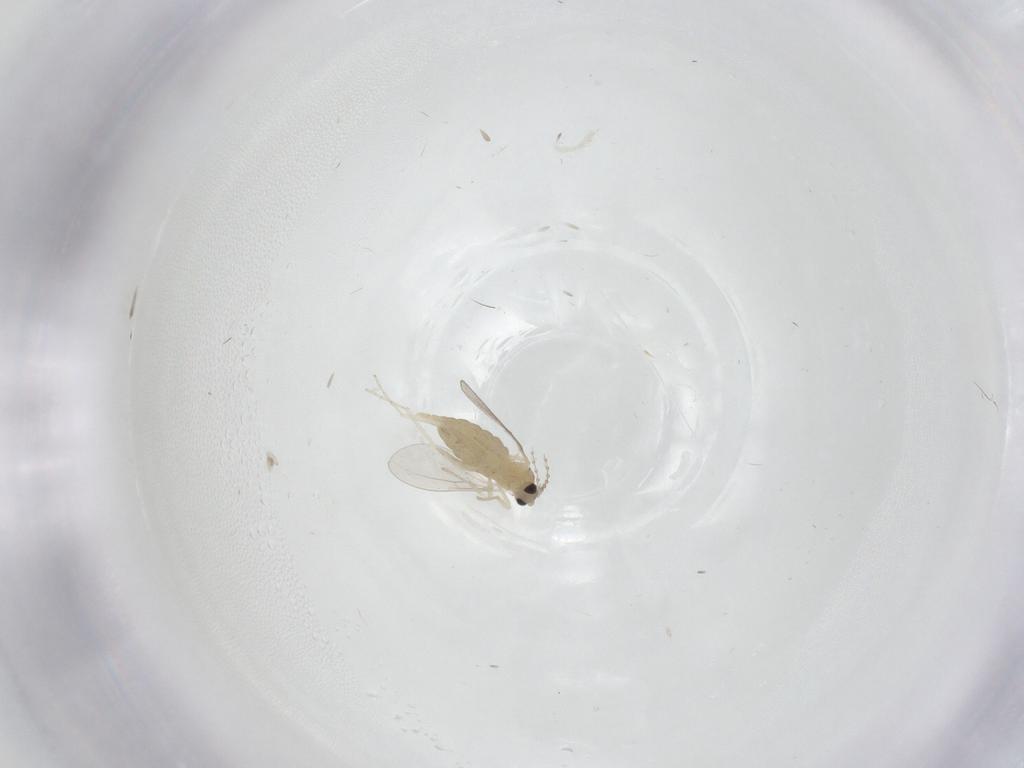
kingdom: Animalia
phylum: Arthropoda
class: Insecta
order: Diptera
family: Cecidomyiidae
